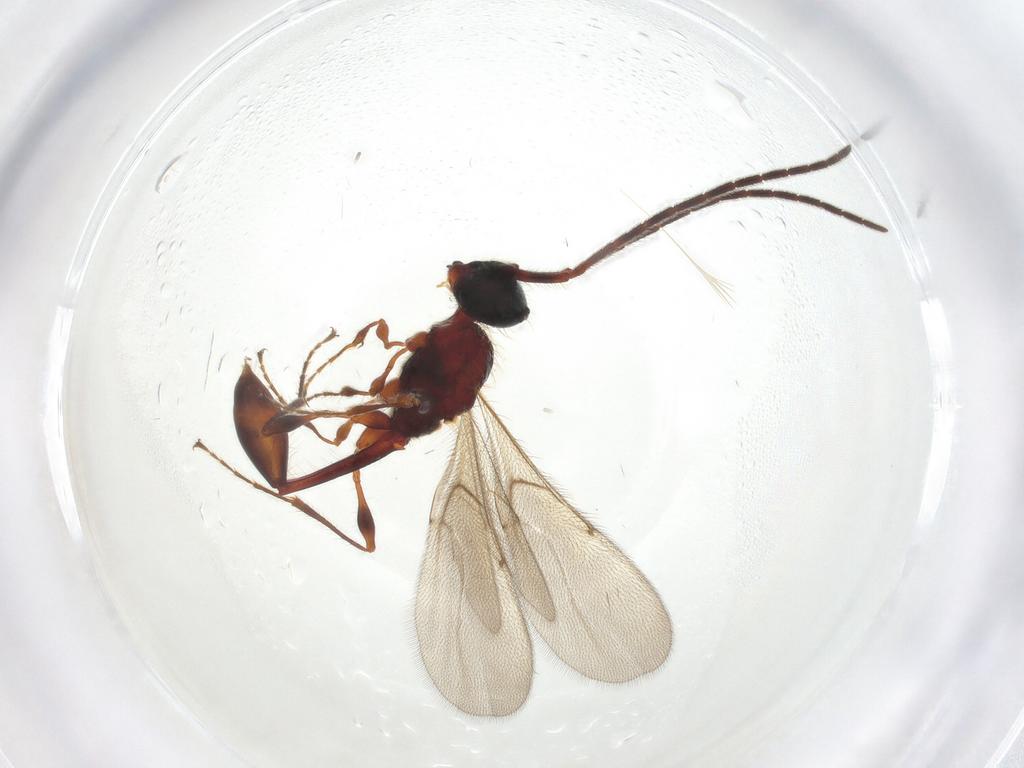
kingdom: Animalia
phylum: Arthropoda
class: Insecta
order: Hymenoptera
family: Diapriidae
